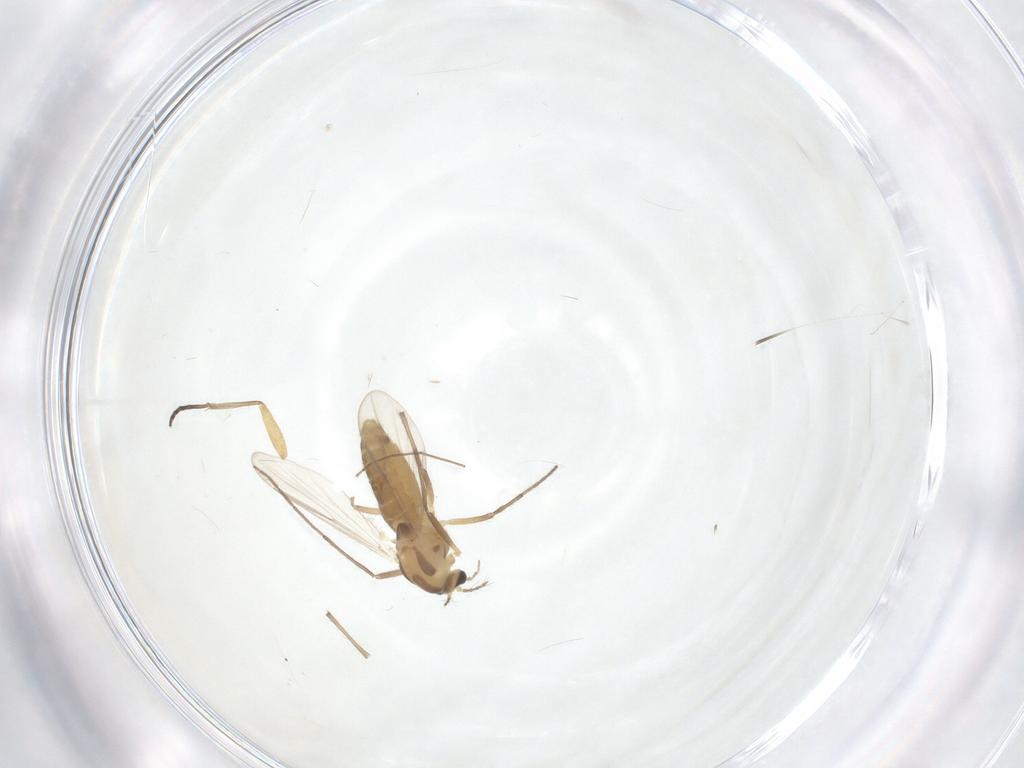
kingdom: Animalia
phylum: Arthropoda
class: Insecta
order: Diptera
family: Chironomidae
